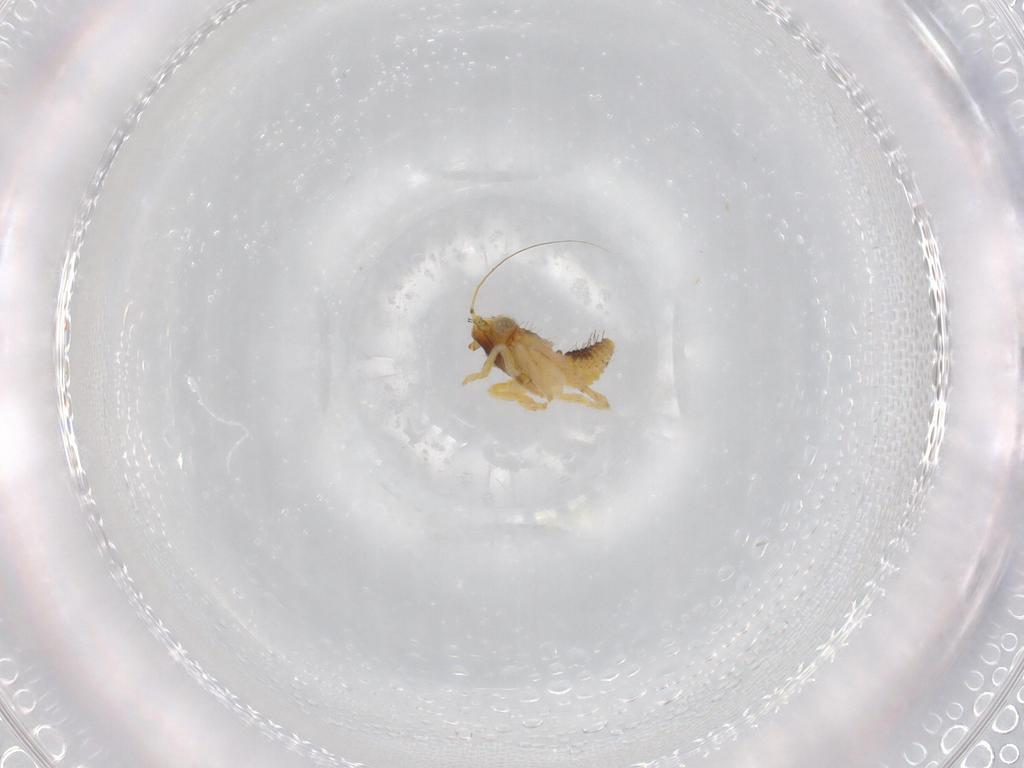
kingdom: Animalia
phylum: Arthropoda
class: Insecta
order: Hemiptera
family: Cicadellidae
